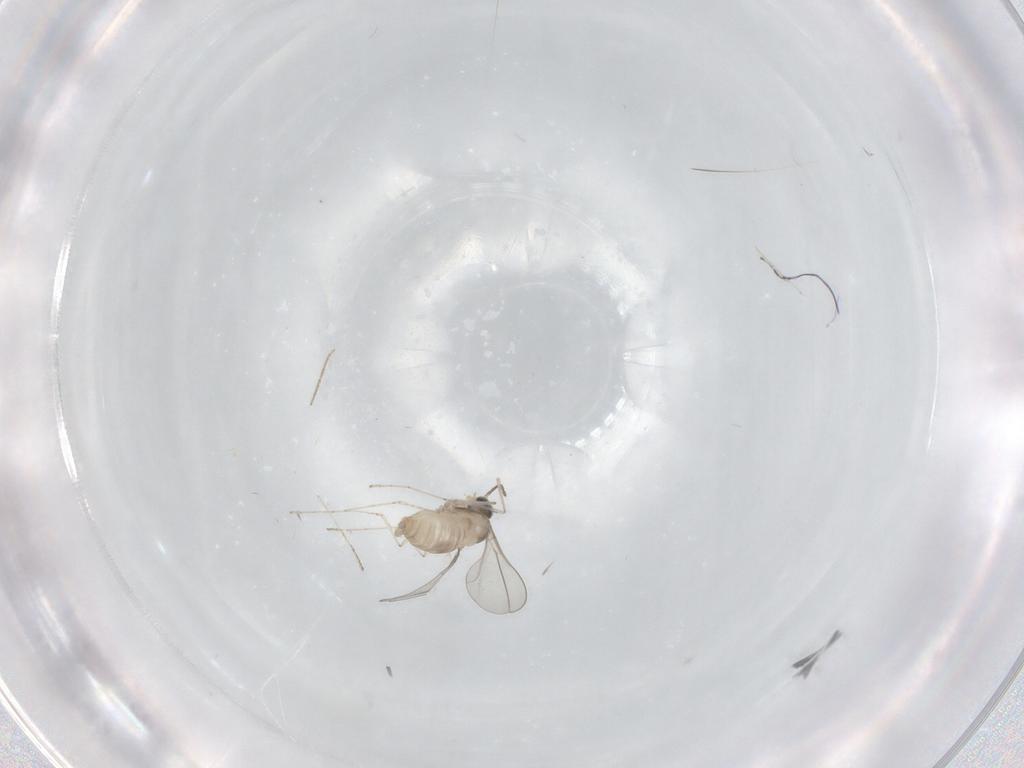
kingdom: Animalia
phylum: Arthropoda
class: Insecta
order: Diptera
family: Cecidomyiidae
